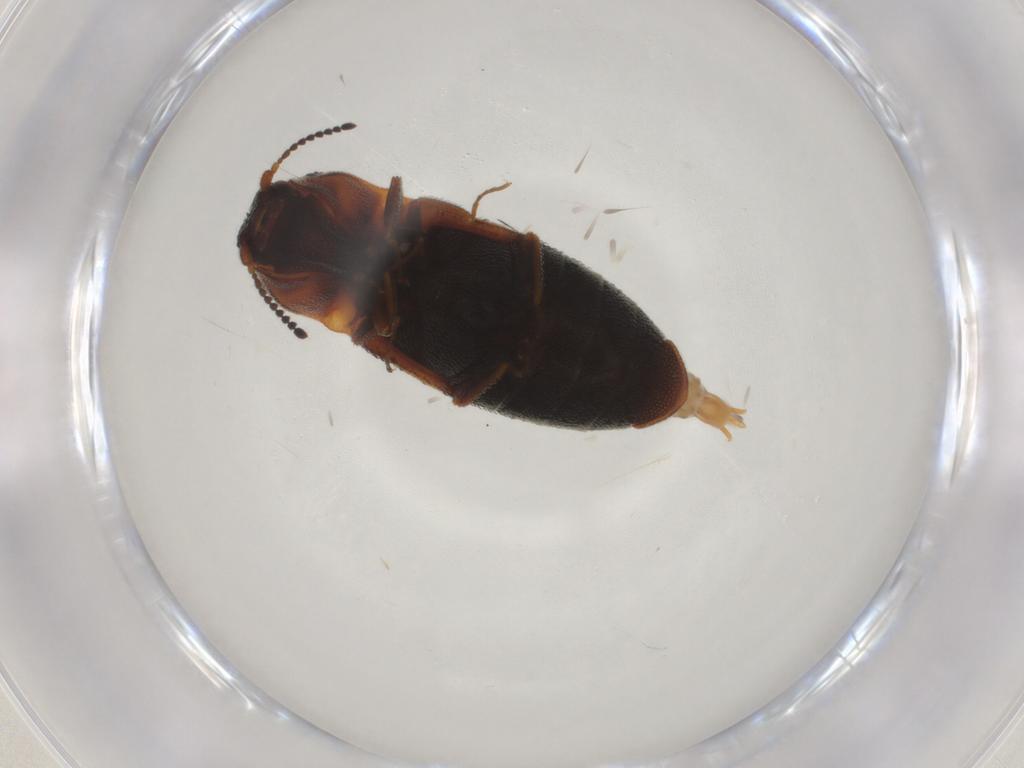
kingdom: Animalia
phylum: Arthropoda
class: Insecta
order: Diptera
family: Cecidomyiidae
